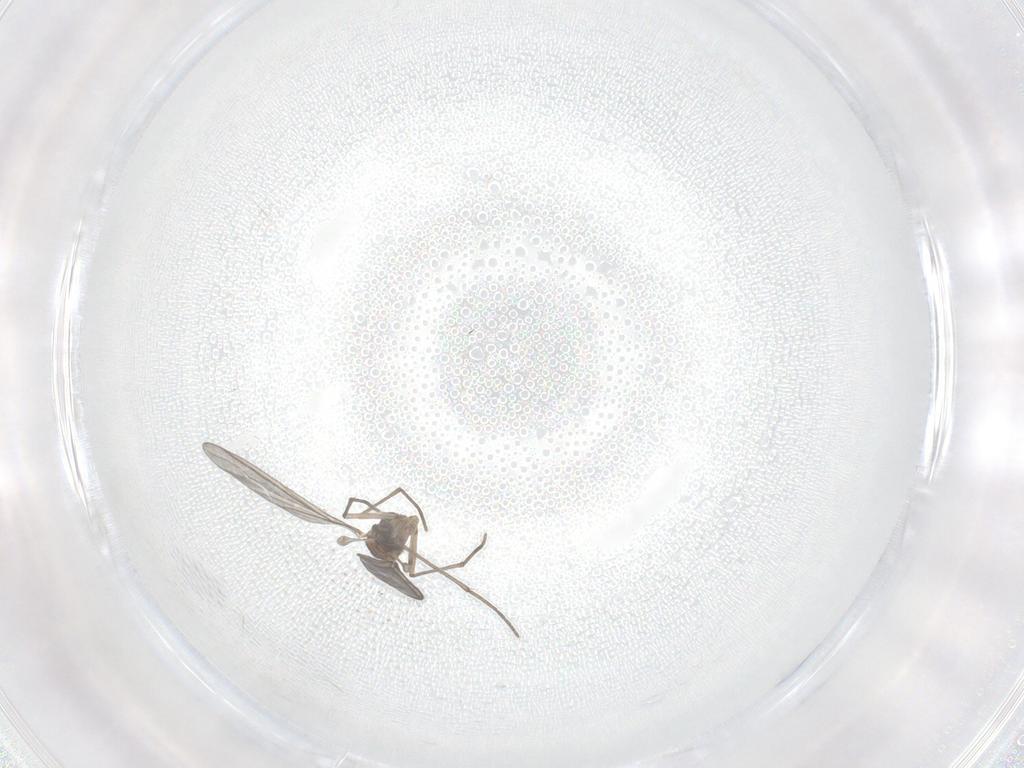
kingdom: Animalia
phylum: Arthropoda
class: Insecta
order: Diptera
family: Sciaridae
